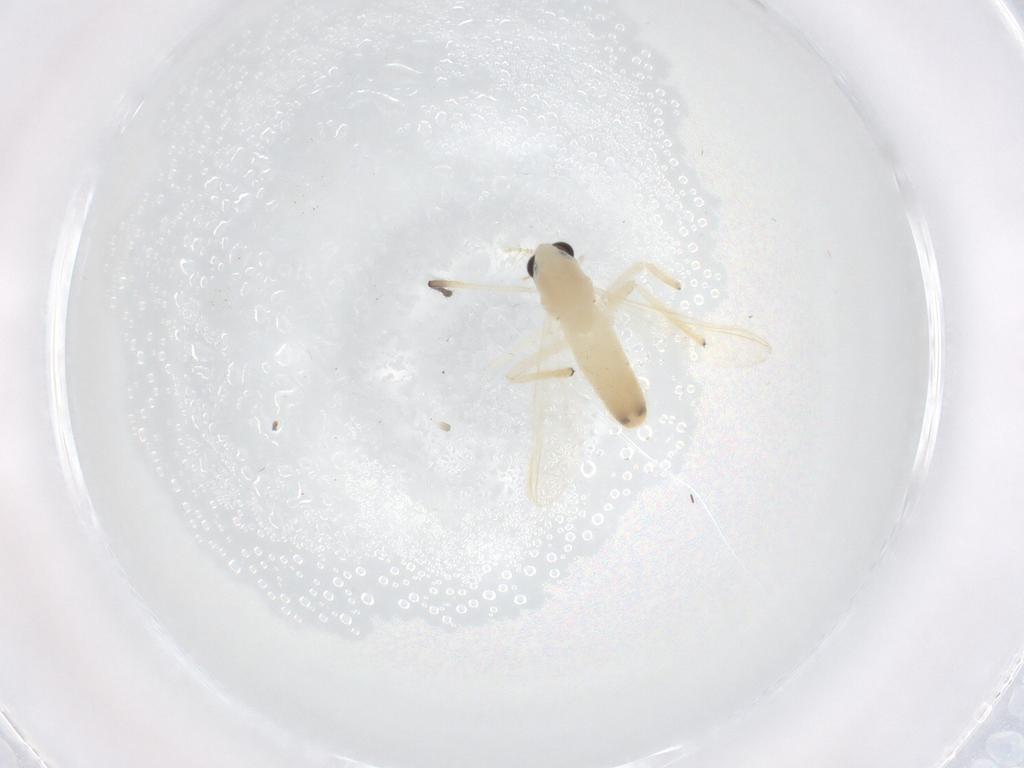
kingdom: Animalia
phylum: Arthropoda
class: Insecta
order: Diptera
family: Chironomidae
